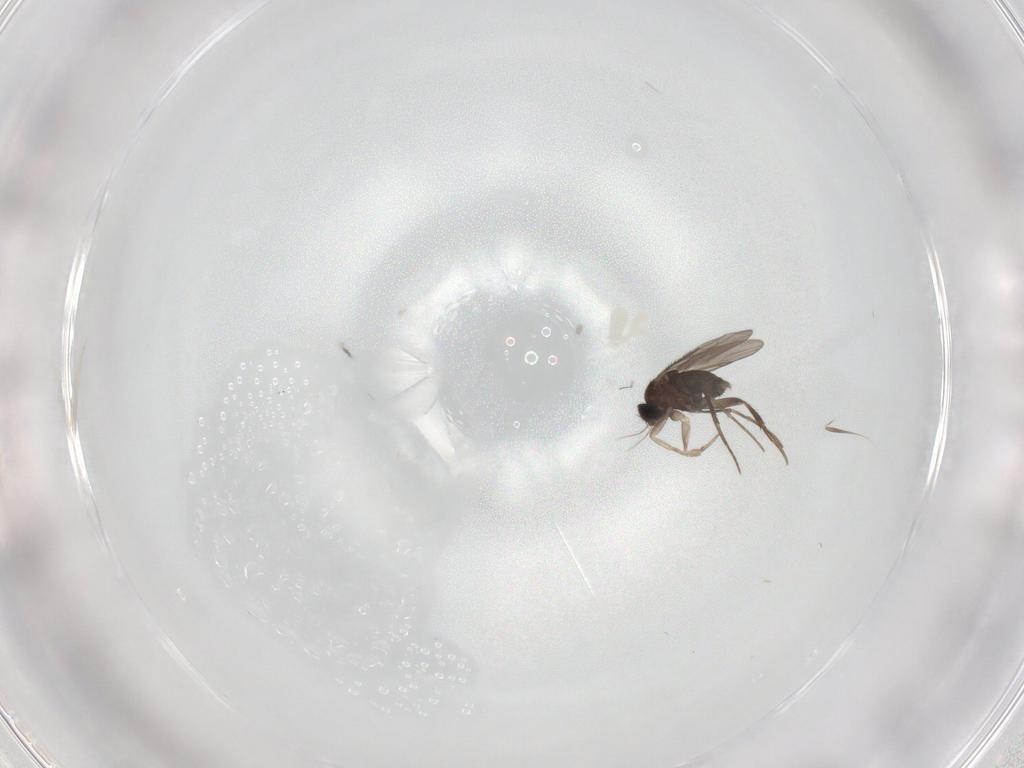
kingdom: Animalia
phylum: Arthropoda
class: Insecta
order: Diptera
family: Phoridae
